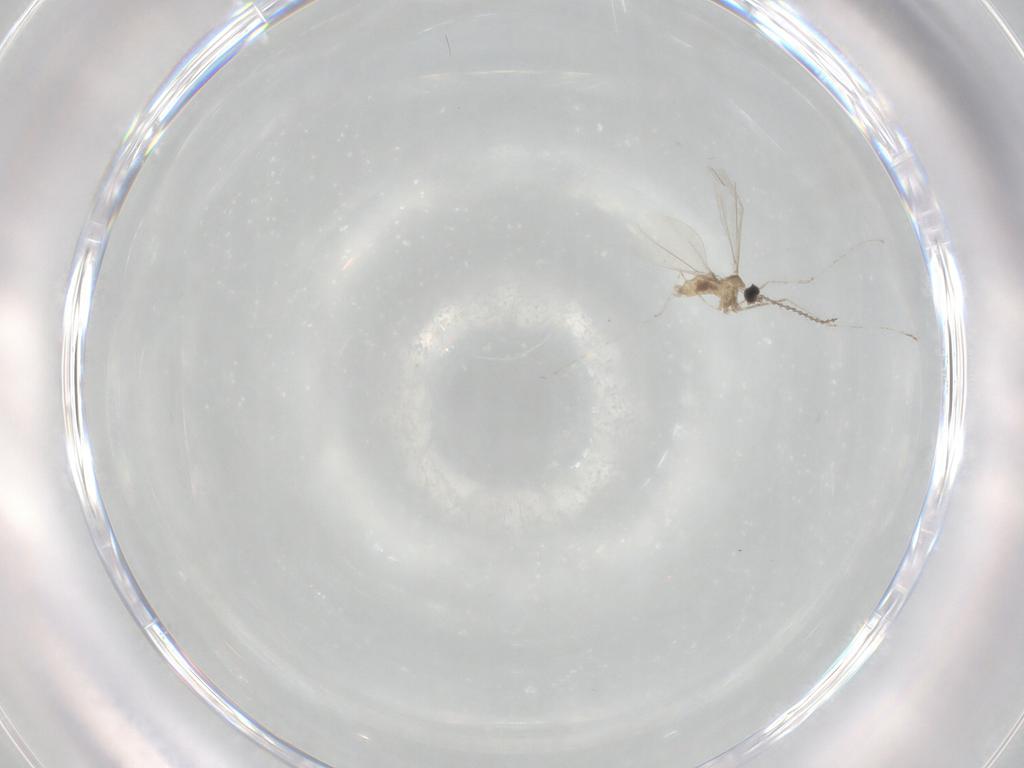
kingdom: Animalia
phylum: Arthropoda
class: Insecta
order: Diptera
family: Cecidomyiidae
